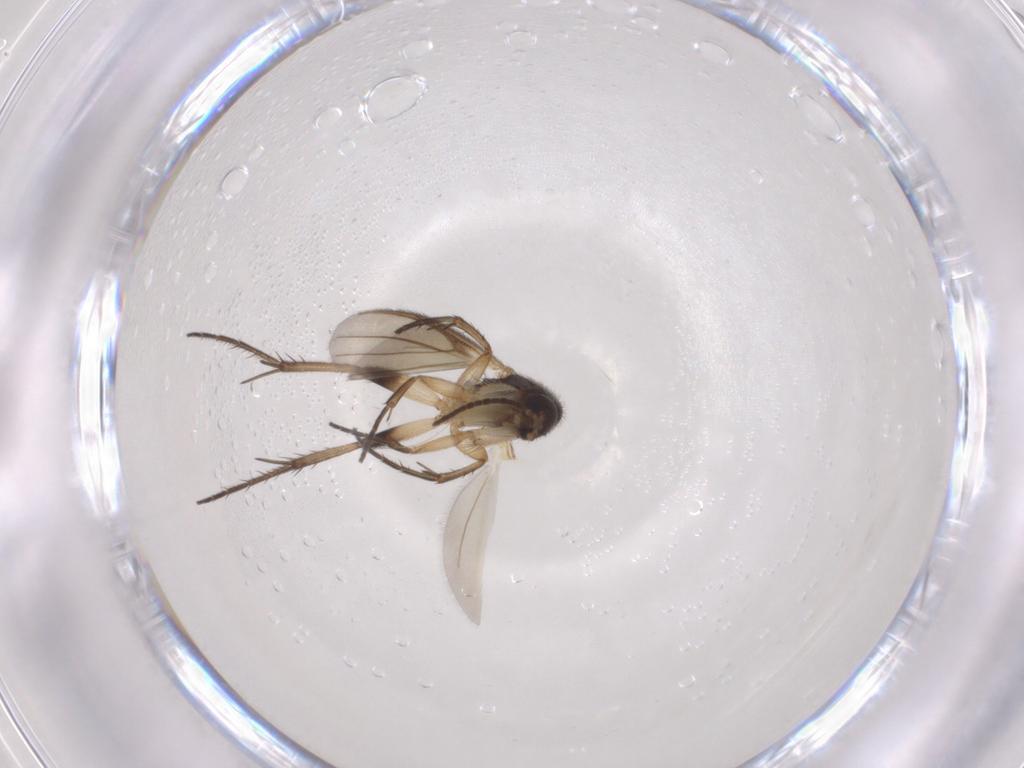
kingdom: Animalia
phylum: Arthropoda
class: Insecta
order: Diptera
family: Mycetophilidae
